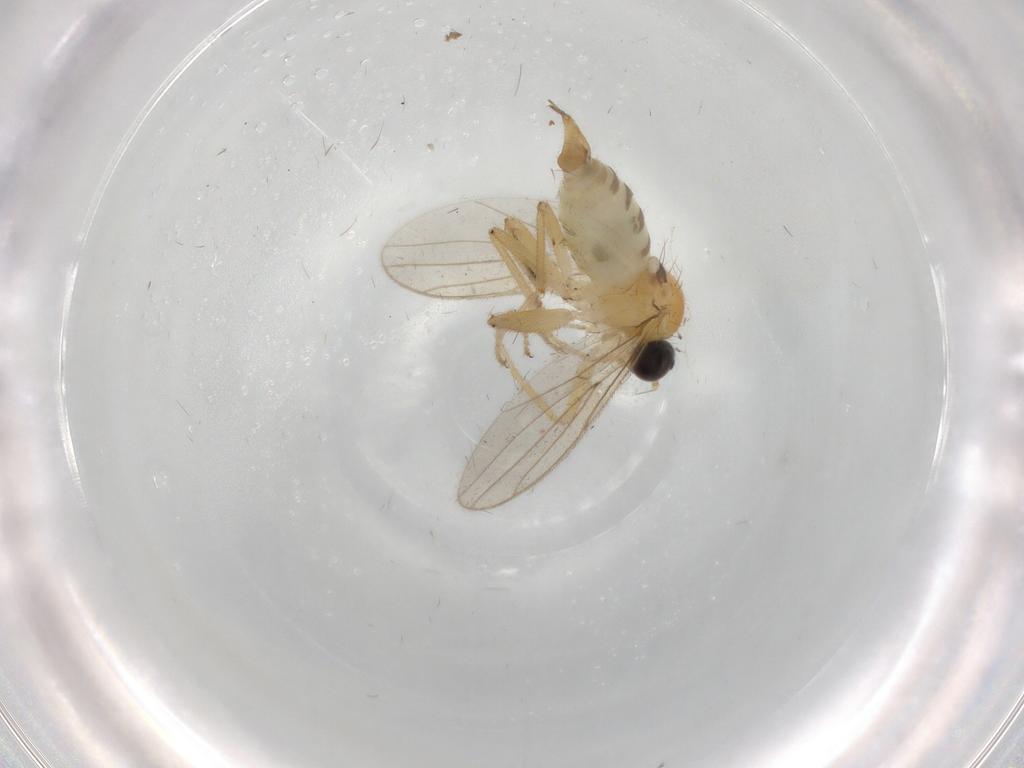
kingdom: Animalia
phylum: Arthropoda
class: Insecta
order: Diptera
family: Hybotidae
